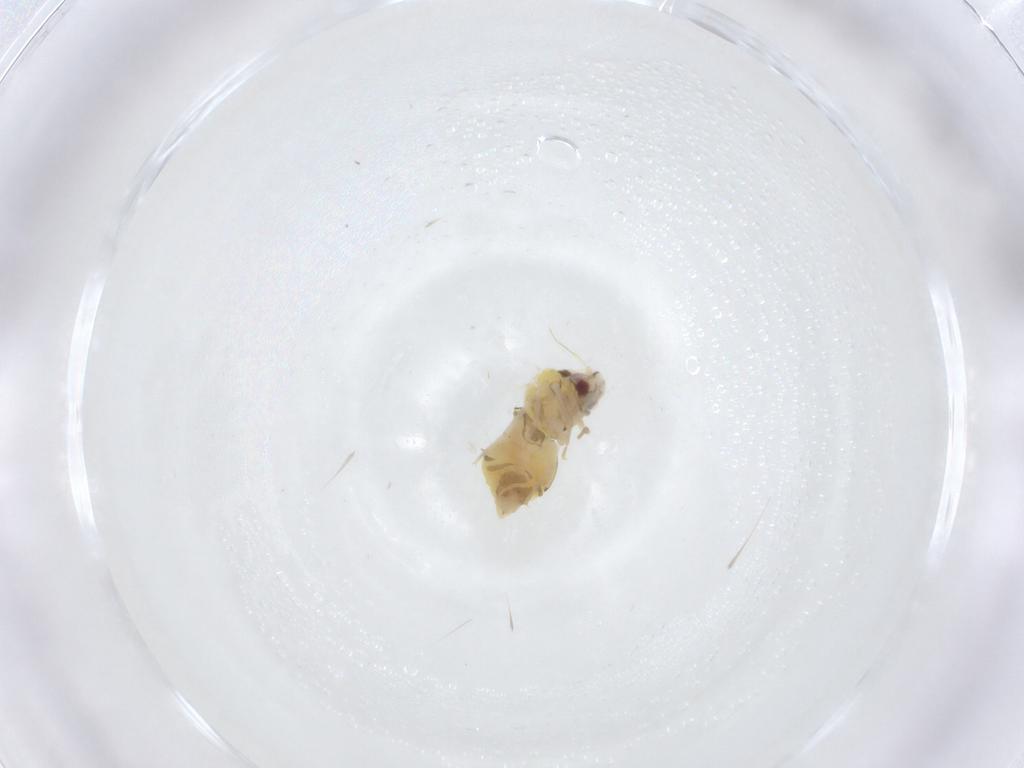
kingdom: Animalia
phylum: Arthropoda
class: Insecta
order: Hemiptera
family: Aleyrodidae
